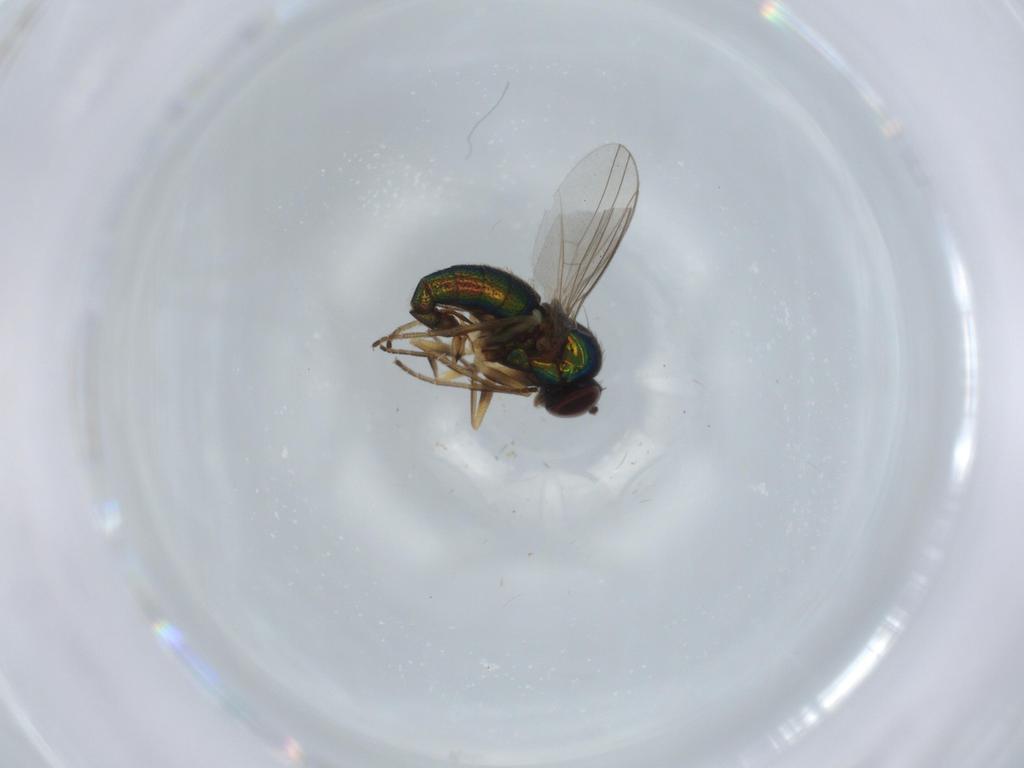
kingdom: Animalia
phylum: Arthropoda
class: Insecta
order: Diptera
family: Dolichopodidae
